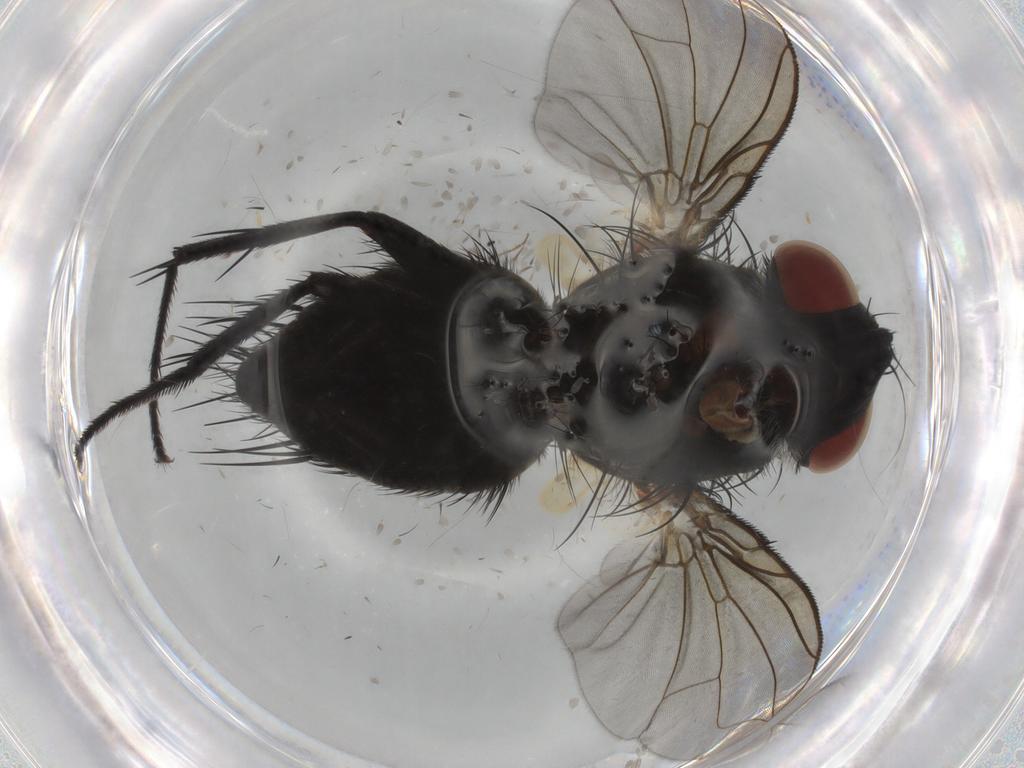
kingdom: Animalia
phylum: Arthropoda
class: Insecta
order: Diptera
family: Tachinidae
